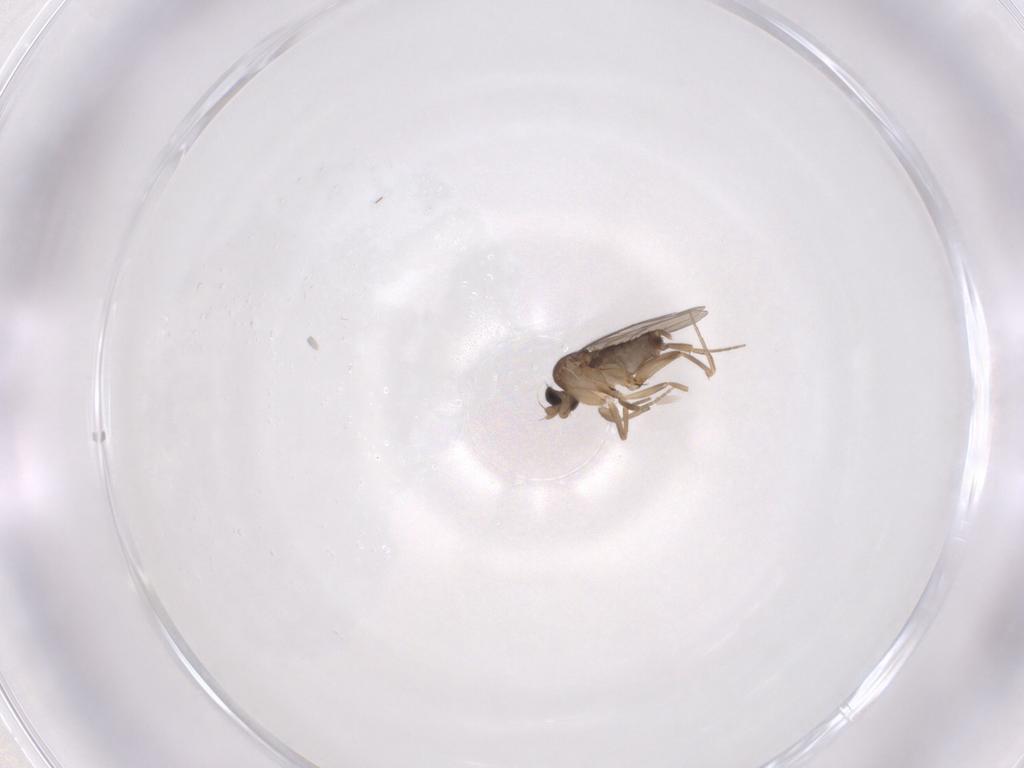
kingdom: Animalia
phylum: Arthropoda
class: Insecta
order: Diptera
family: Phoridae
